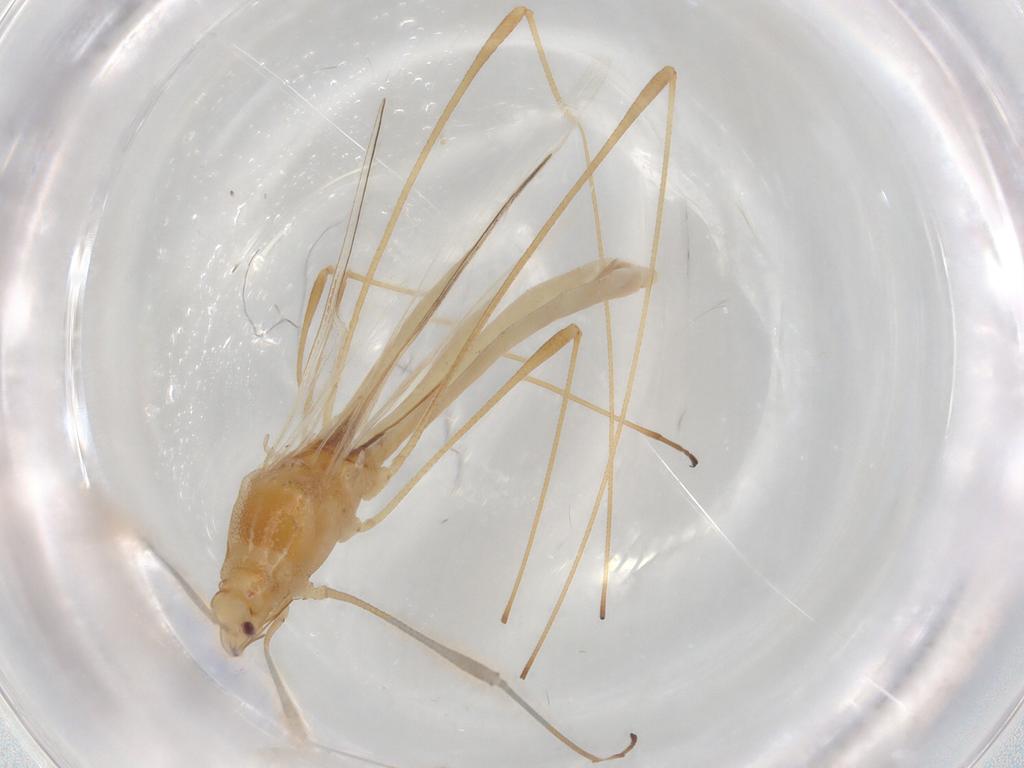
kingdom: Animalia
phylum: Arthropoda
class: Insecta
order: Hemiptera
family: Berytidae
